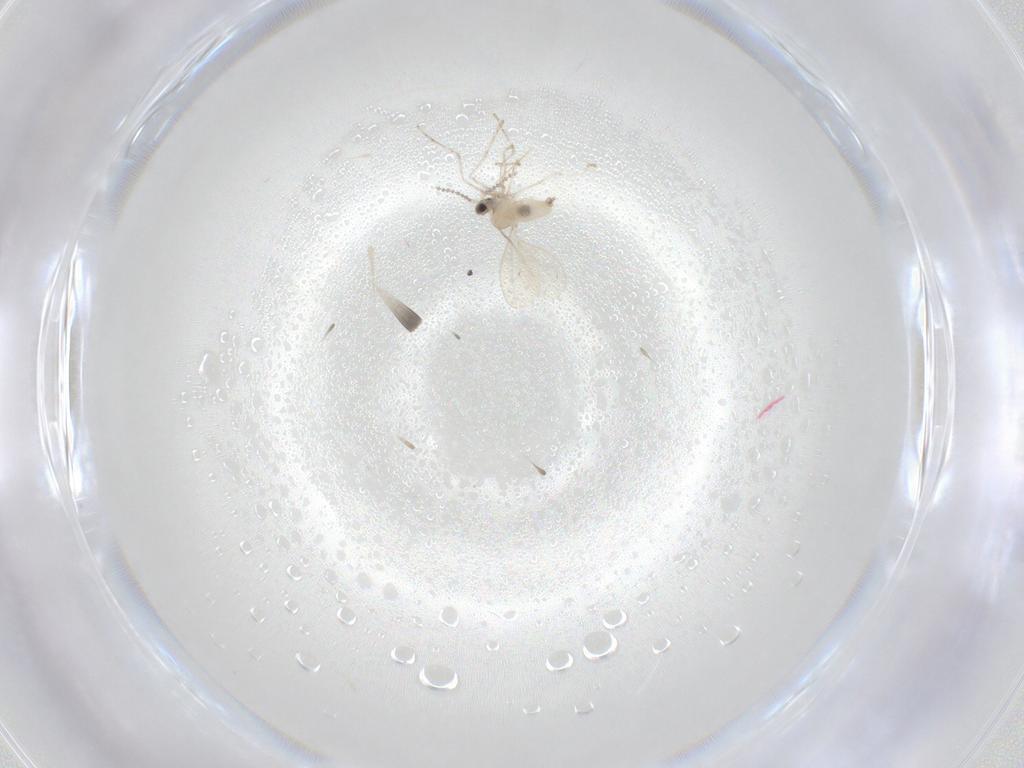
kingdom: Animalia
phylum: Arthropoda
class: Insecta
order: Diptera
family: Cecidomyiidae
